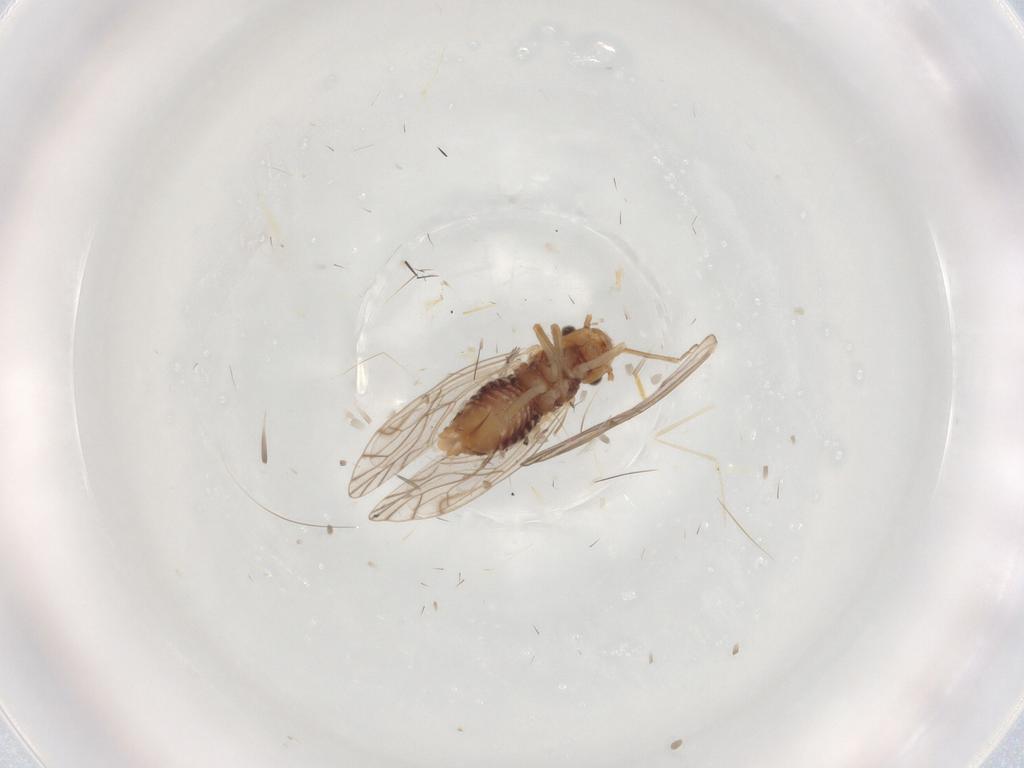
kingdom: Animalia
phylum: Arthropoda
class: Insecta
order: Psocodea
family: Lachesillidae
